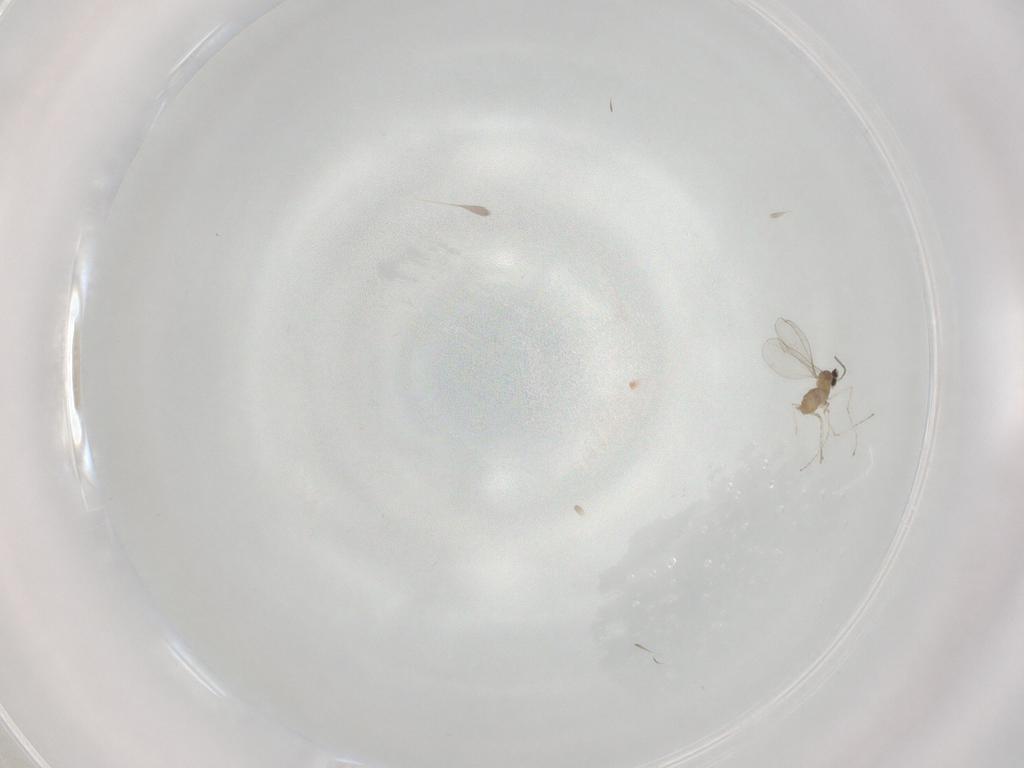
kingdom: Animalia
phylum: Arthropoda
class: Insecta
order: Diptera
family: Cecidomyiidae
